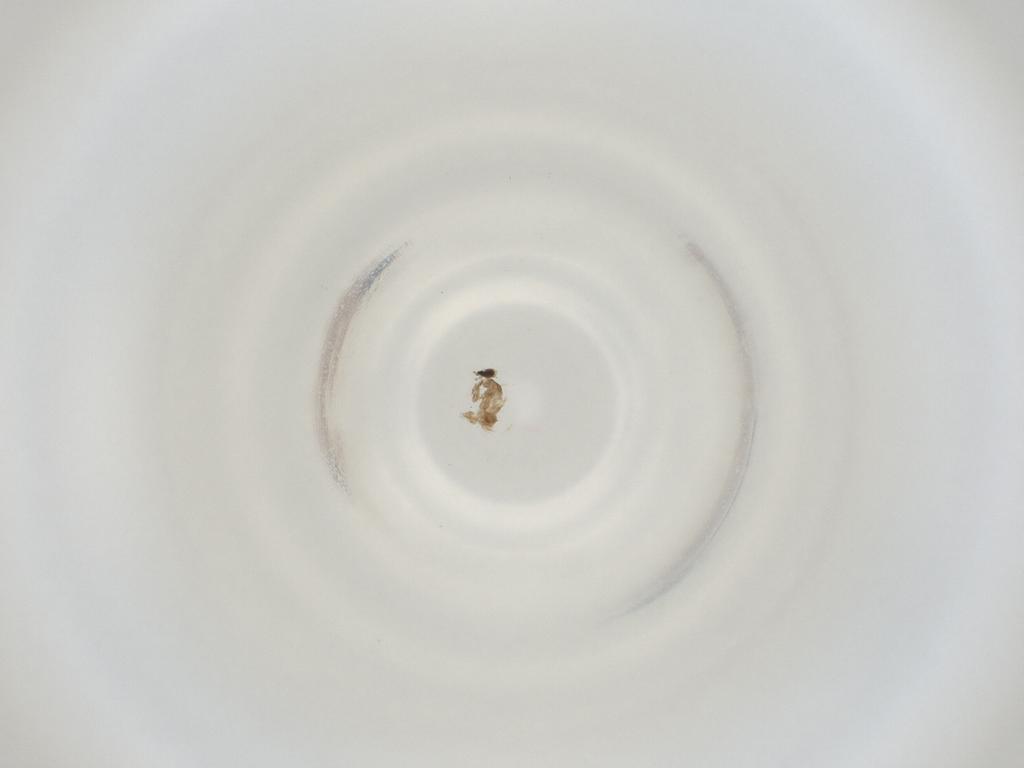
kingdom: Animalia
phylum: Arthropoda
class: Insecta
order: Diptera
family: Cecidomyiidae
